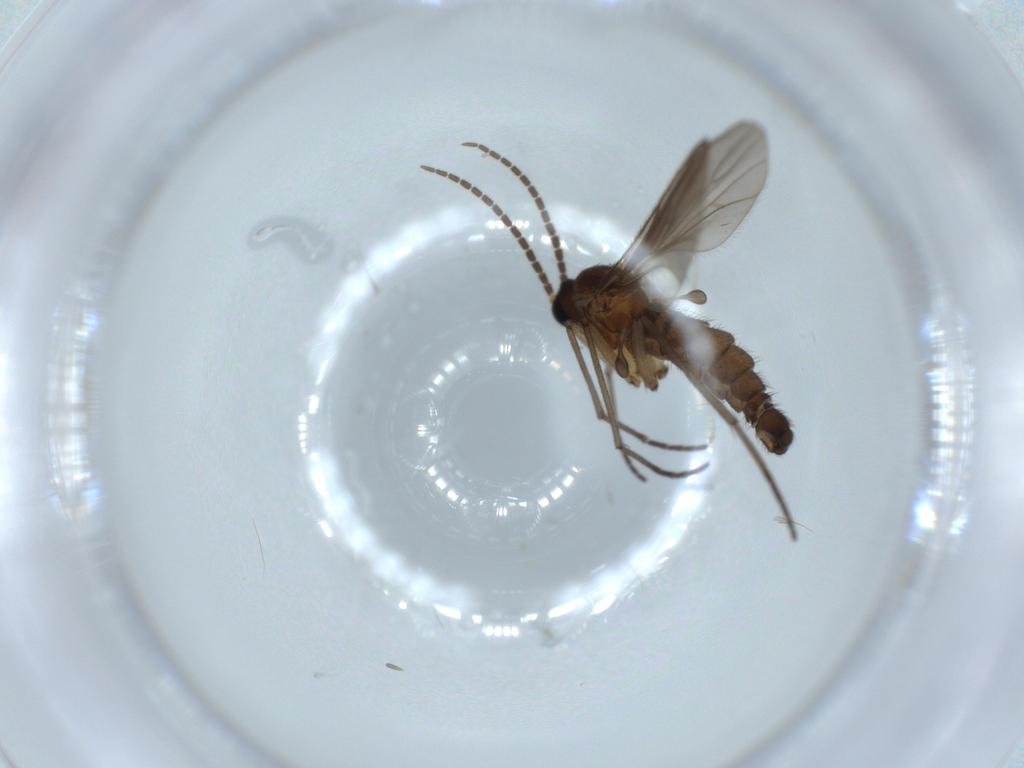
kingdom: Animalia
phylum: Arthropoda
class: Insecta
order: Diptera
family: Sciaridae
